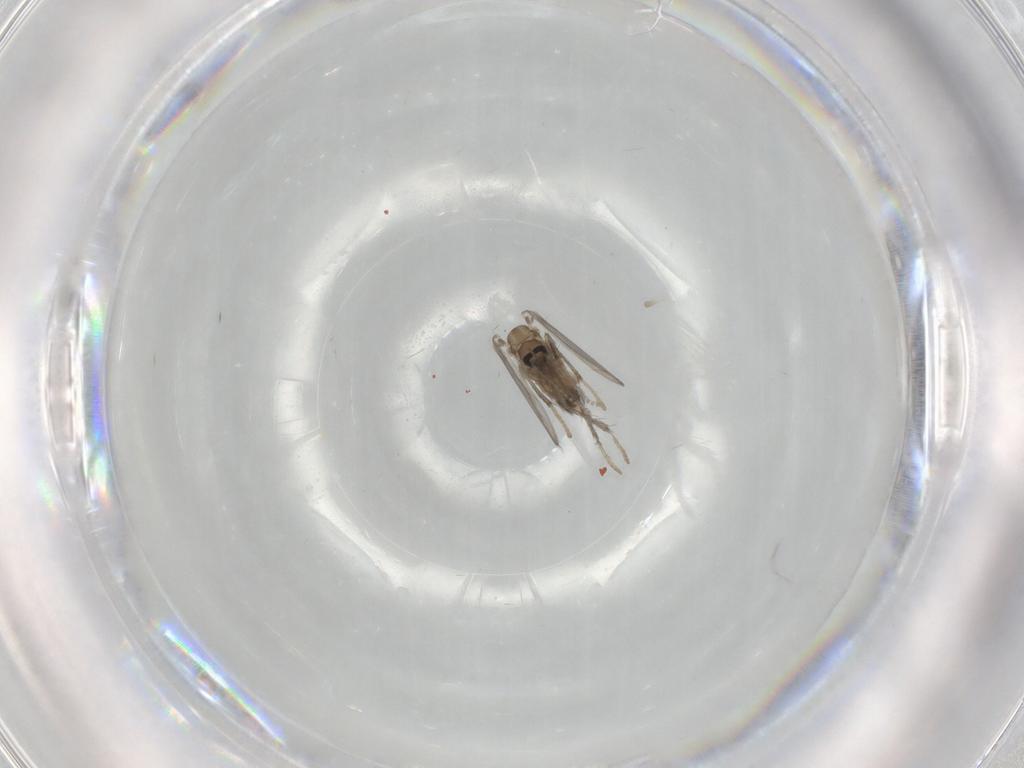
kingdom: Animalia
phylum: Arthropoda
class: Insecta
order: Diptera
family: Psychodidae
